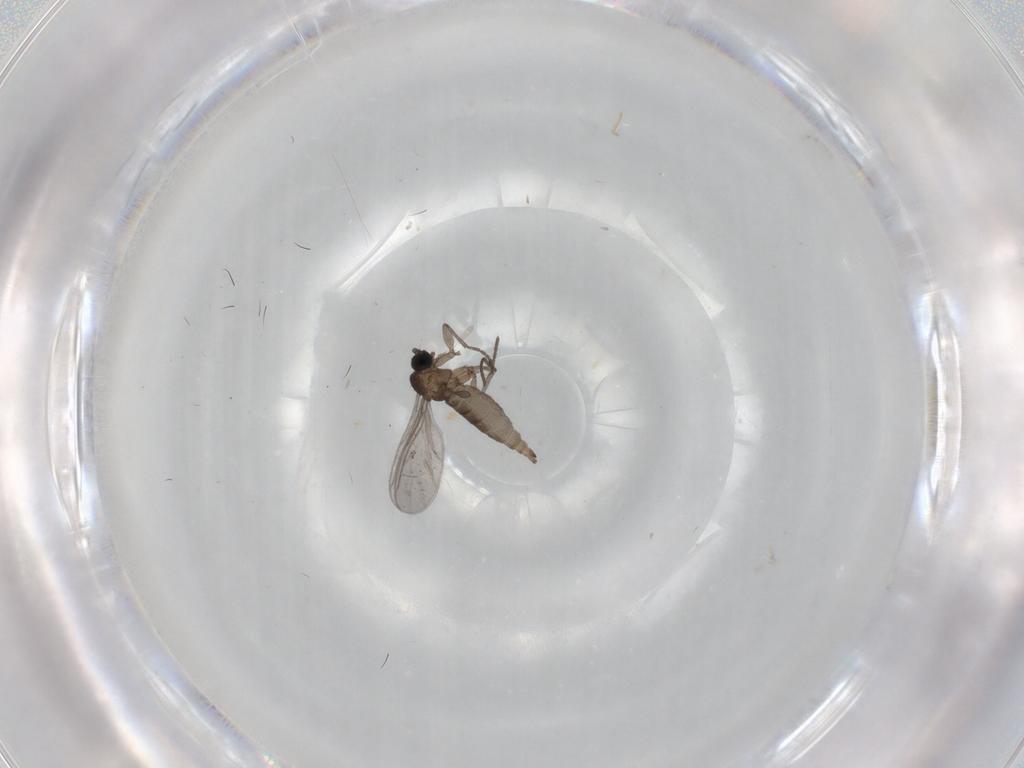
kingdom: Animalia
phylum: Arthropoda
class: Insecta
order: Diptera
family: Sciaridae
